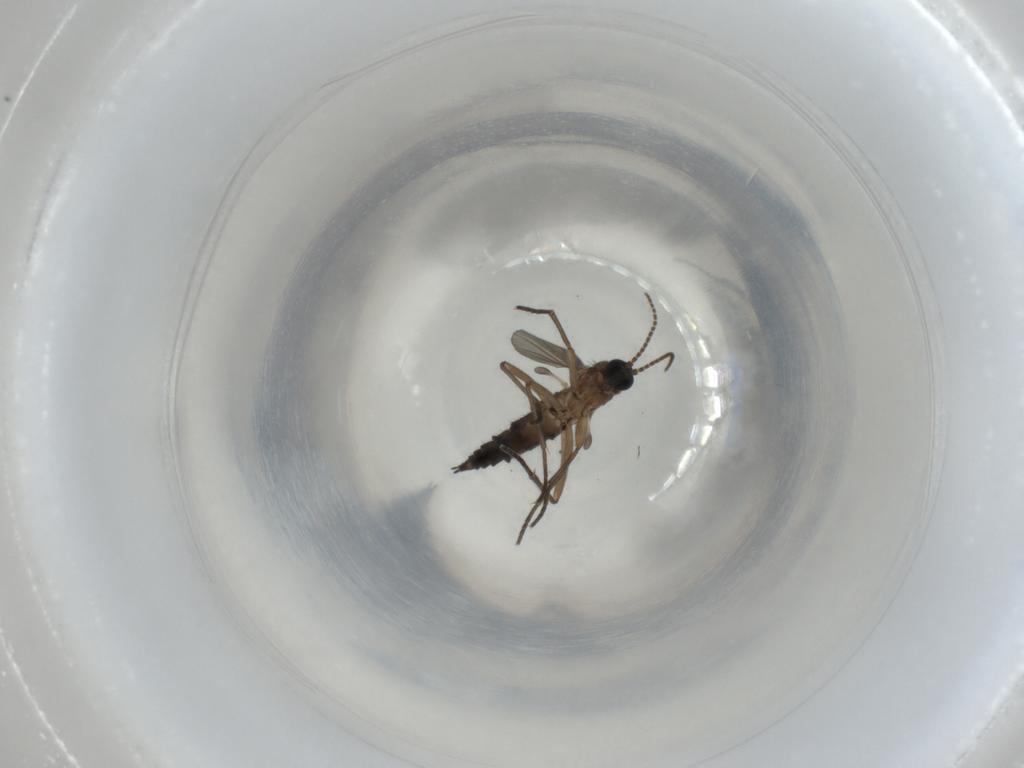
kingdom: Animalia
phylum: Arthropoda
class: Insecta
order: Diptera
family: Sciaridae
